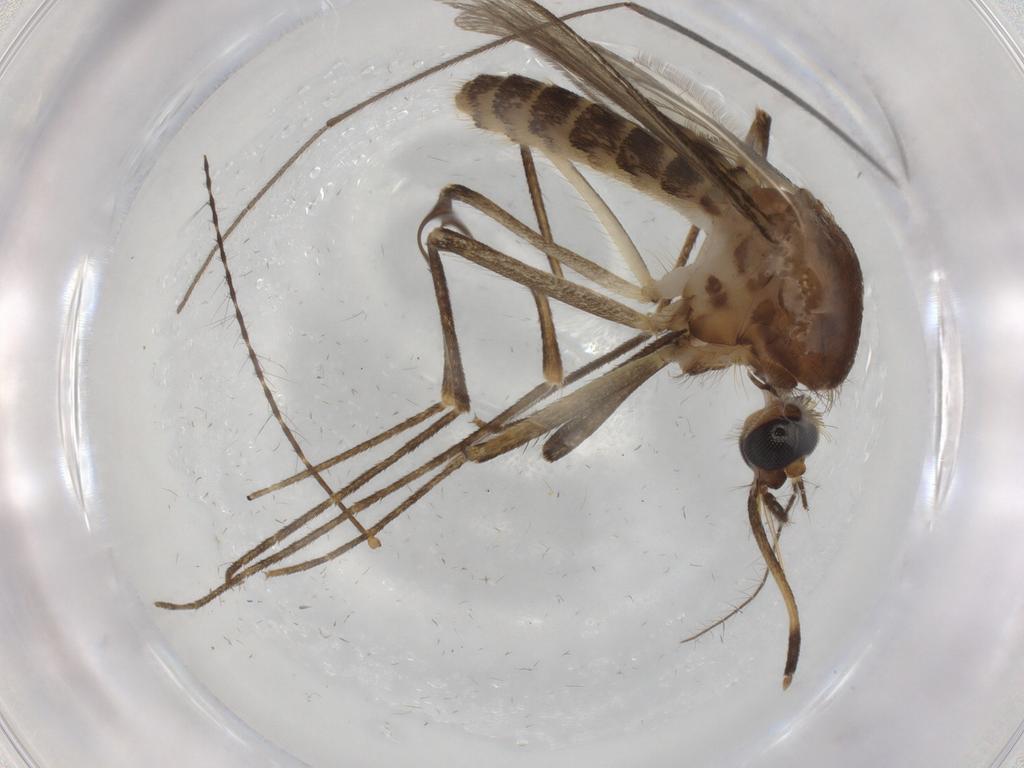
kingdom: Animalia
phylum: Arthropoda
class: Insecta
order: Diptera
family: Ceratopogonidae
